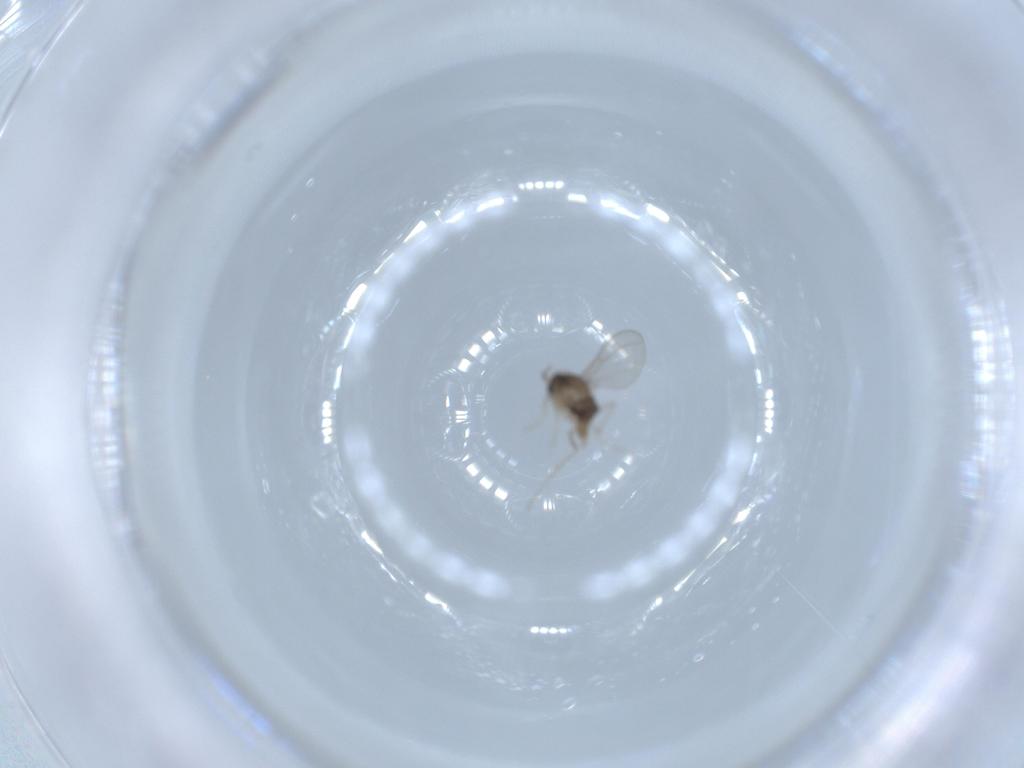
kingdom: Animalia
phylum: Arthropoda
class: Insecta
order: Diptera
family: Cecidomyiidae
